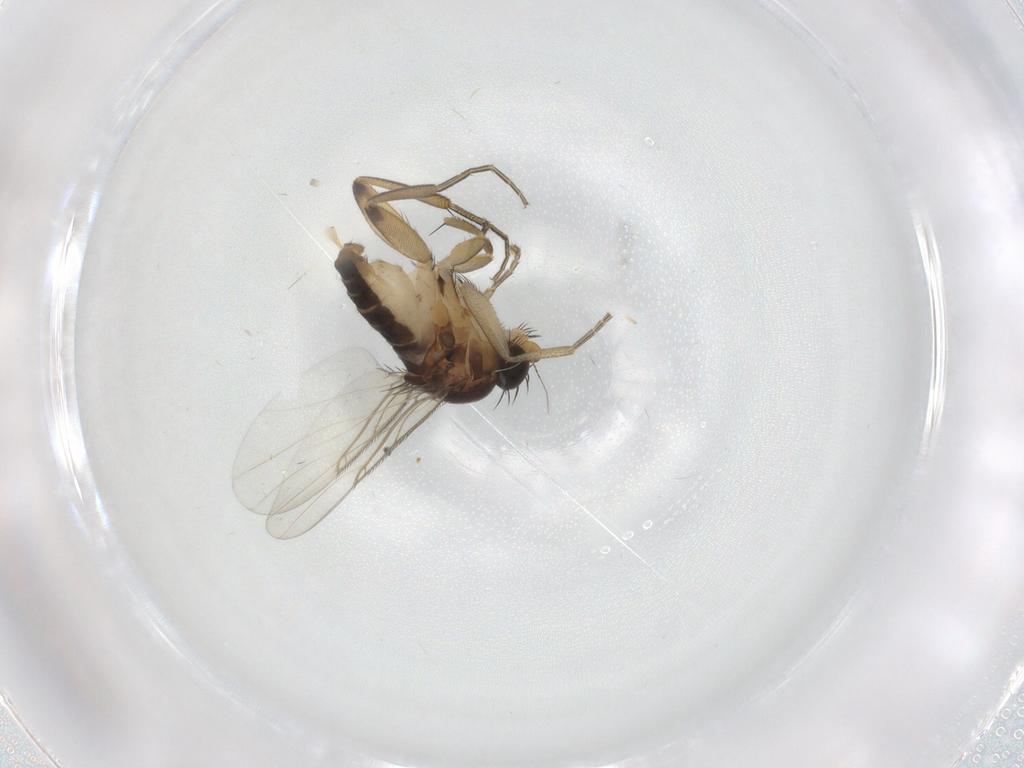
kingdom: Animalia
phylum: Arthropoda
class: Insecta
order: Diptera
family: Phoridae
